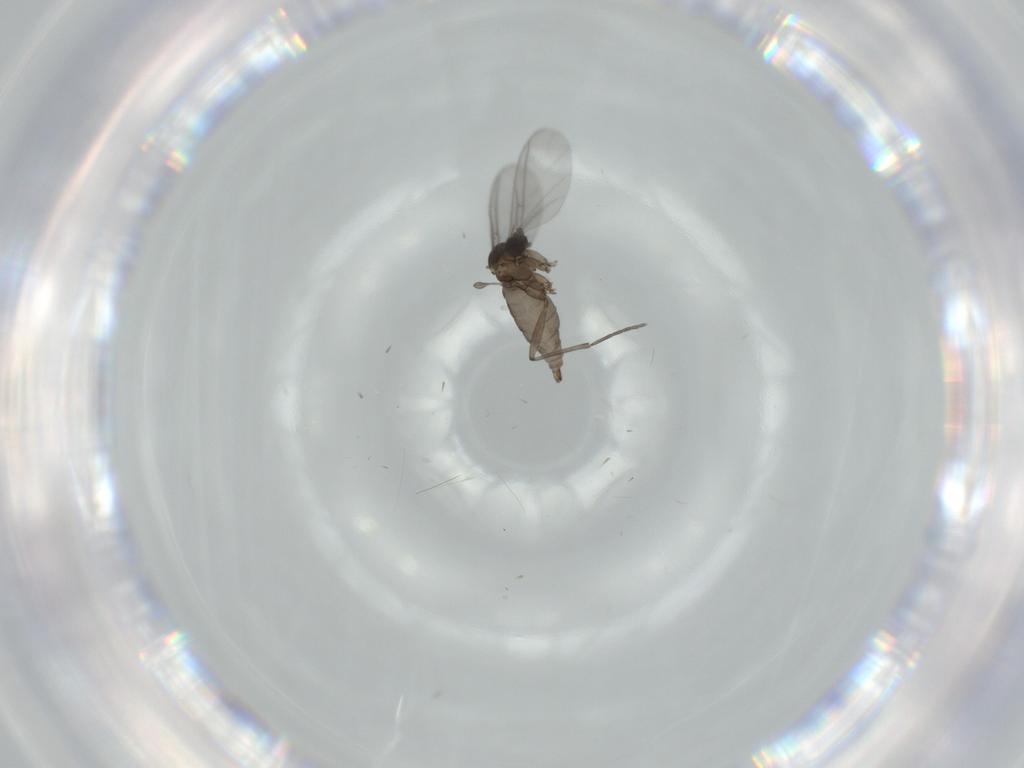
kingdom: Animalia
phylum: Arthropoda
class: Insecta
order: Diptera
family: Sciaridae
